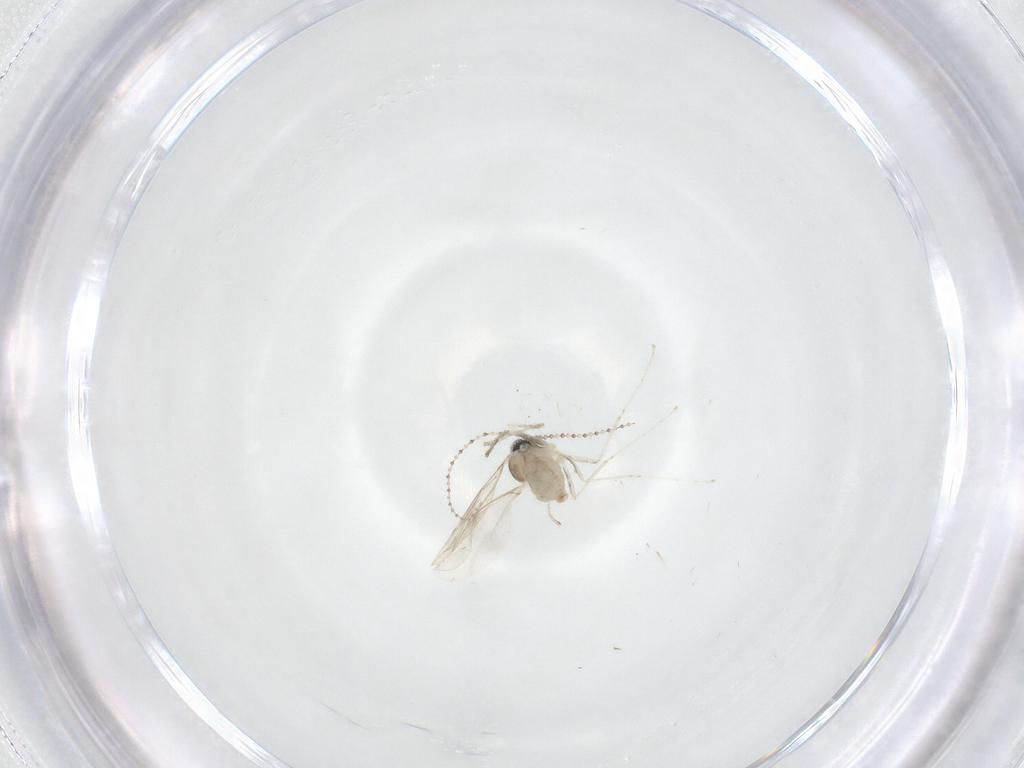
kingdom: Animalia
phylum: Arthropoda
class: Insecta
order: Diptera
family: Cecidomyiidae
